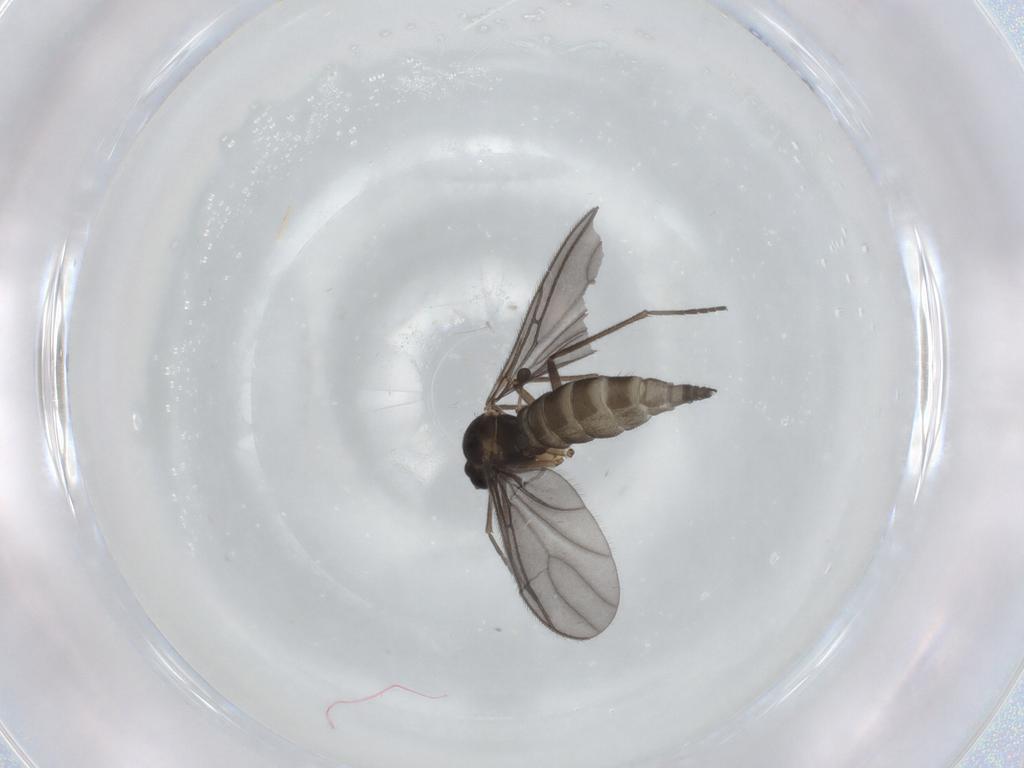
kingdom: Animalia
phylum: Arthropoda
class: Insecta
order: Diptera
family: Sciaridae
